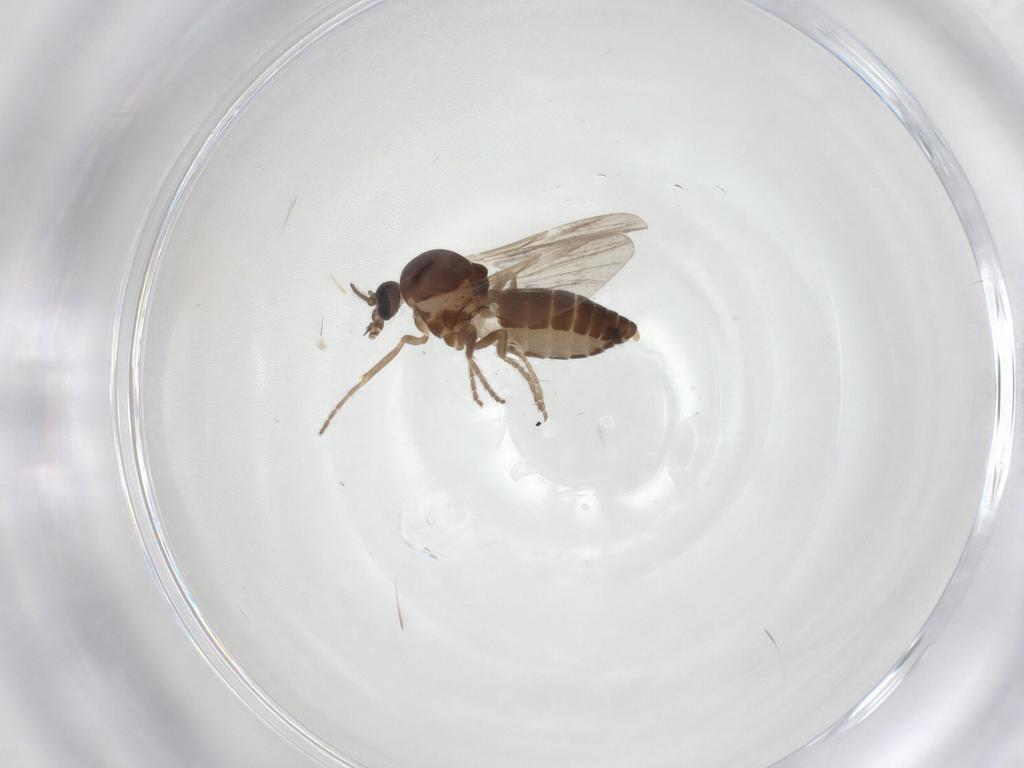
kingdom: Animalia
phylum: Arthropoda
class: Insecta
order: Diptera
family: Ceratopogonidae
